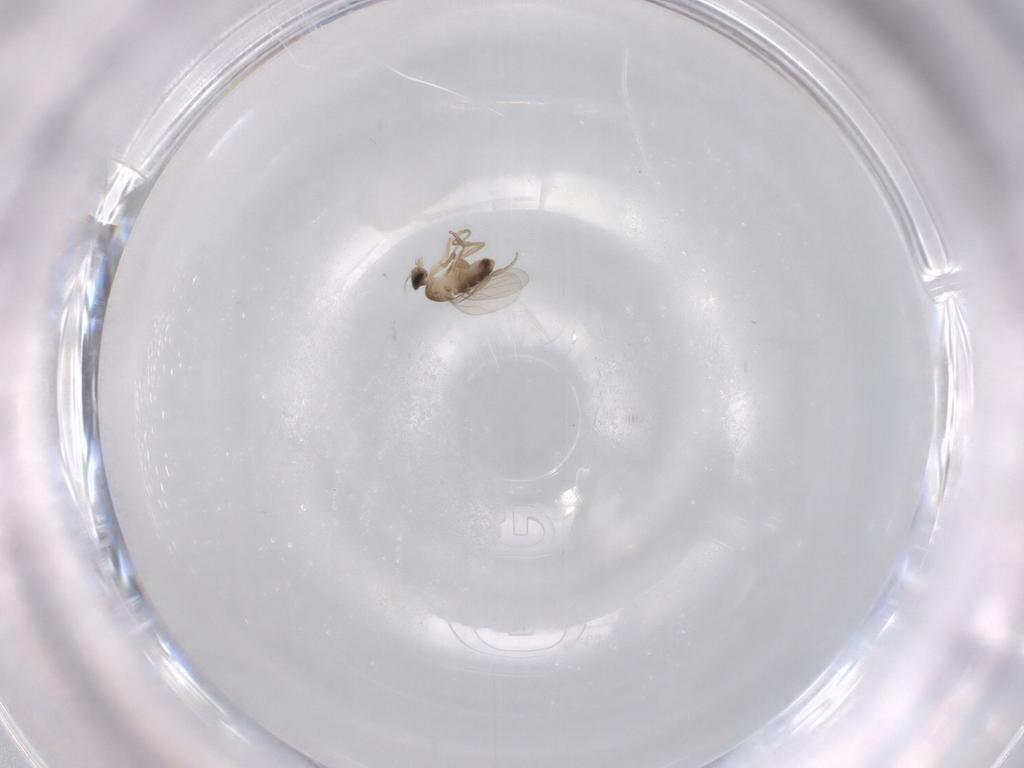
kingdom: Animalia
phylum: Arthropoda
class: Insecta
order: Diptera
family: Phoridae
